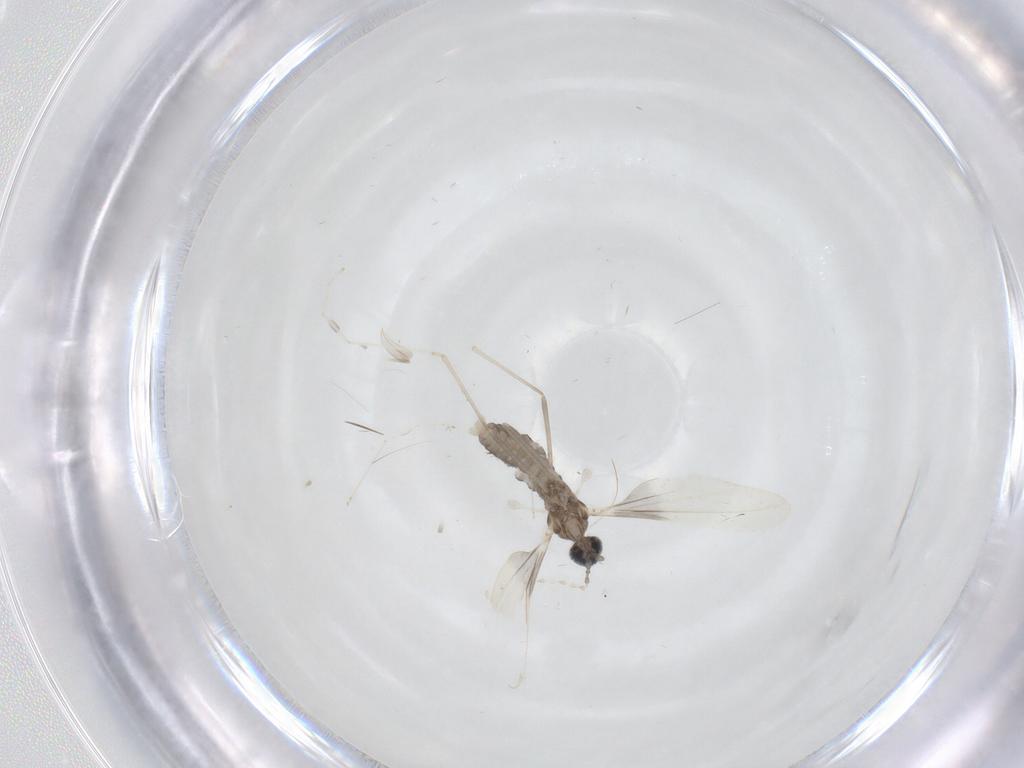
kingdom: Animalia
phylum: Arthropoda
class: Insecta
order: Diptera
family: Cecidomyiidae
